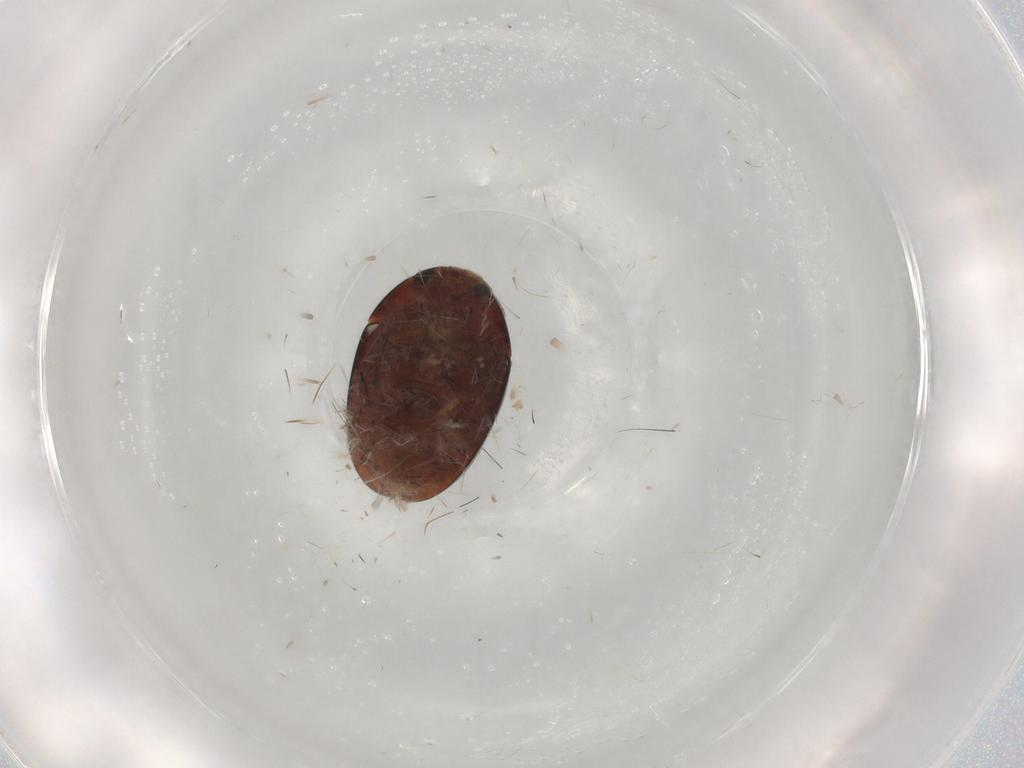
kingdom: Animalia
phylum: Arthropoda
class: Insecta
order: Coleoptera
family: Phalacridae
